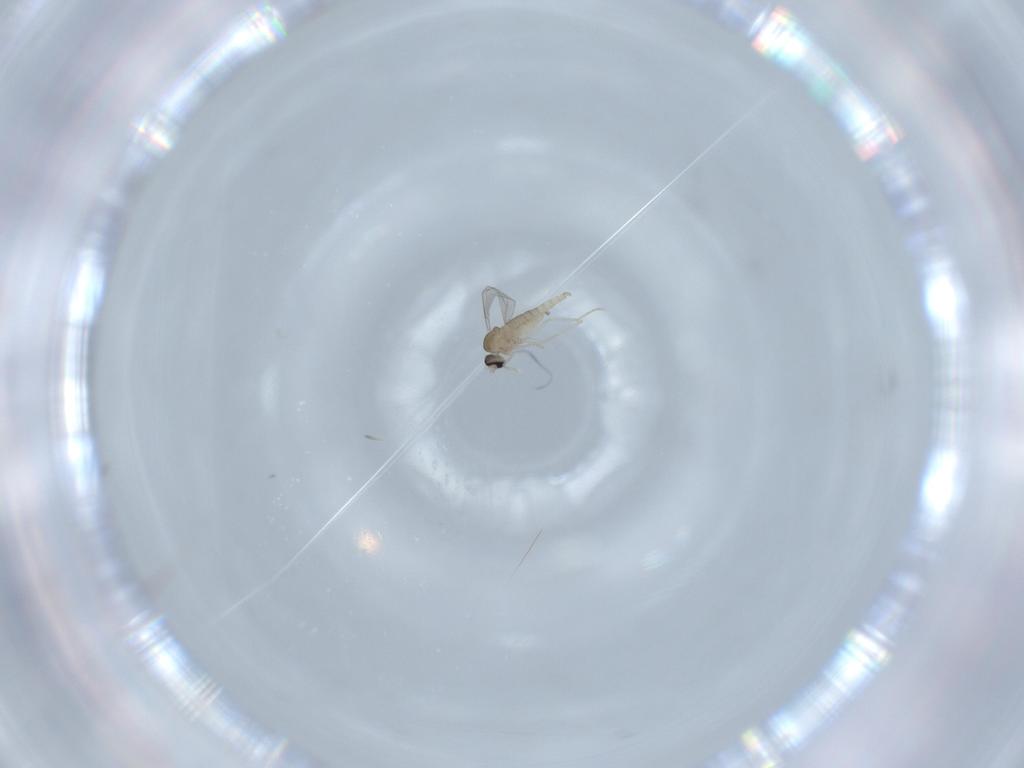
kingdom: Animalia
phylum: Arthropoda
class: Insecta
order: Diptera
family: Cecidomyiidae
